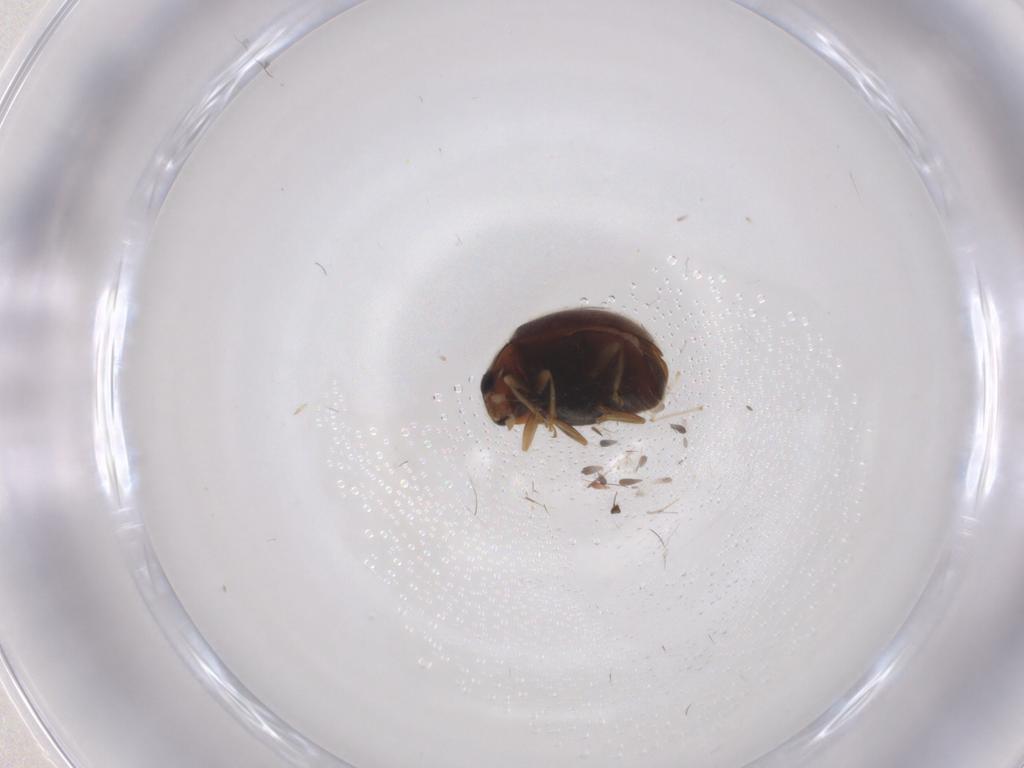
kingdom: Animalia
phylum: Arthropoda
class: Insecta
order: Coleoptera
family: Coccinellidae
